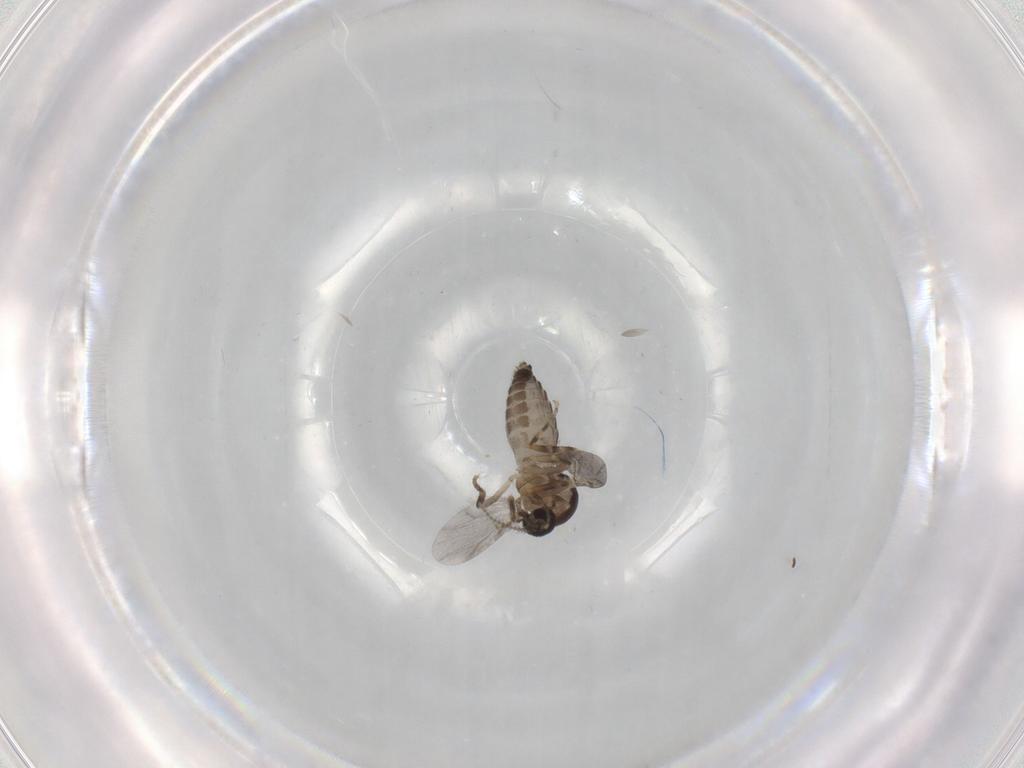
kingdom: Animalia
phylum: Arthropoda
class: Insecta
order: Diptera
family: Ceratopogonidae
